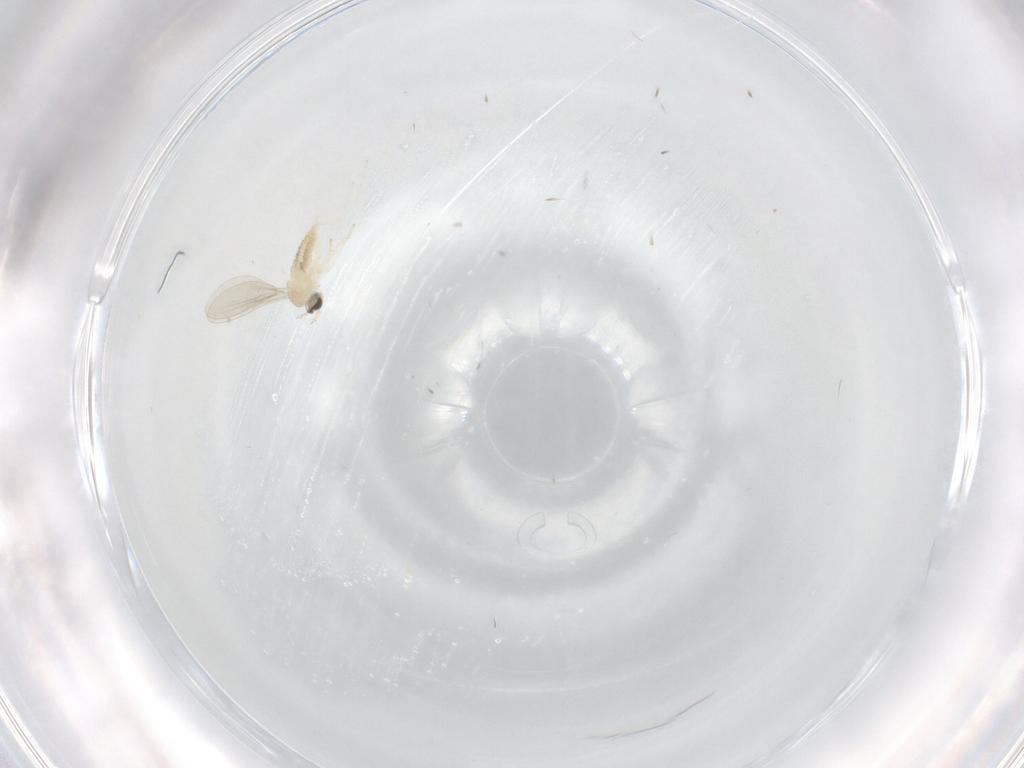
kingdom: Animalia
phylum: Arthropoda
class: Insecta
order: Diptera
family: Cecidomyiidae
